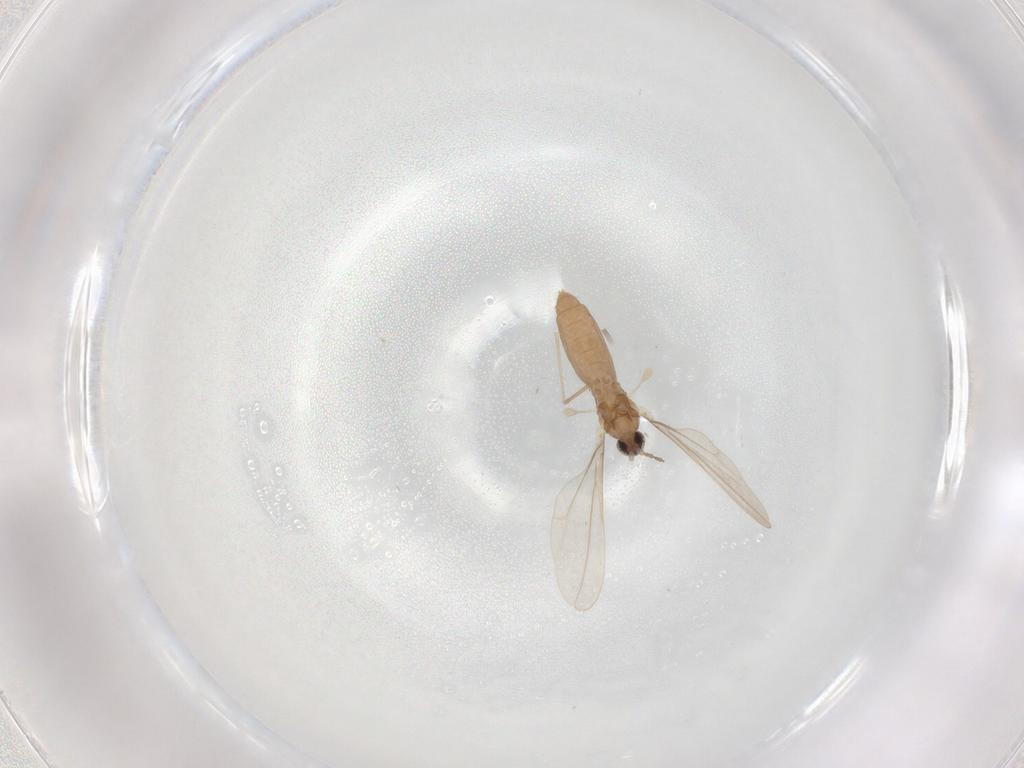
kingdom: Animalia
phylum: Arthropoda
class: Insecta
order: Diptera
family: Cecidomyiidae
